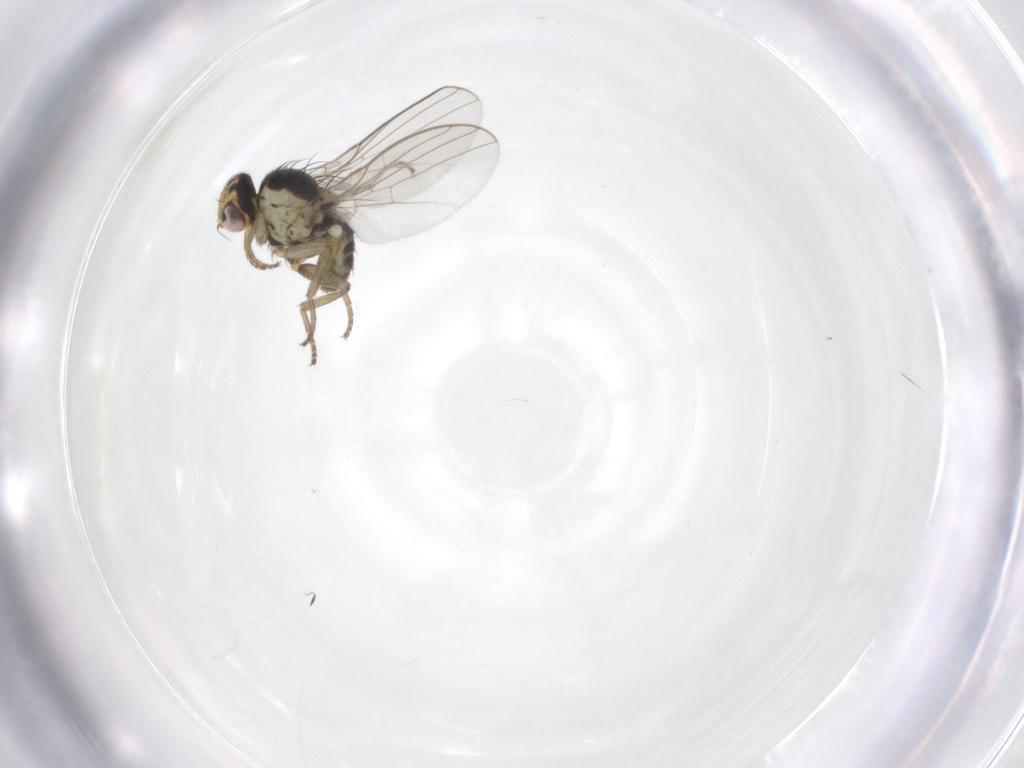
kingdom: Animalia
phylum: Arthropoda
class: Insecta
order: Diptera
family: Agromyzidae
